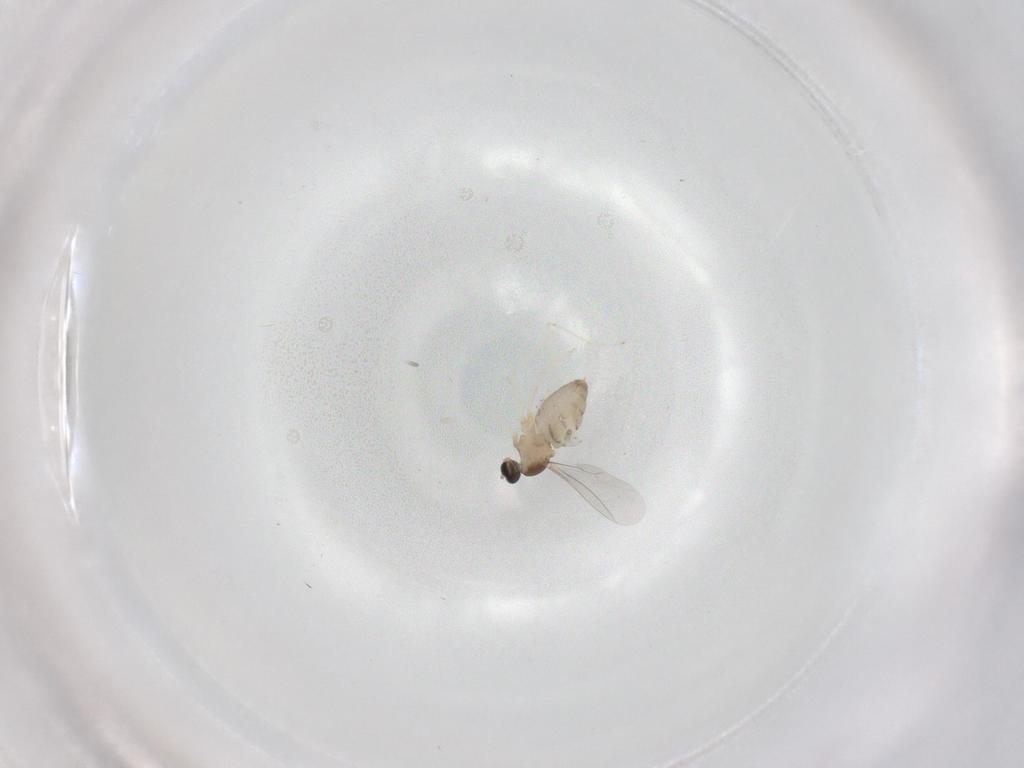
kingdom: Animalia
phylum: Arthropoda
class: Insecta
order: Diptera
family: Cecidomyiidae
